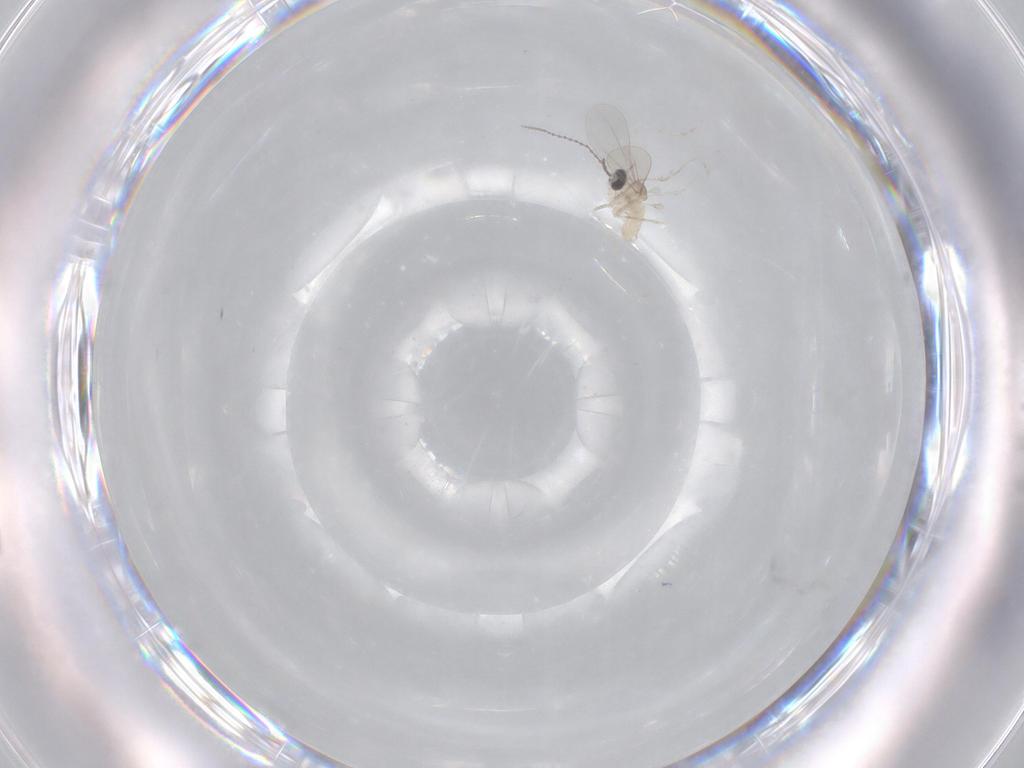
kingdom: Animalia
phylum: Arthropoda
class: Insecta
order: Diptera
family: Cecidomyiidae
